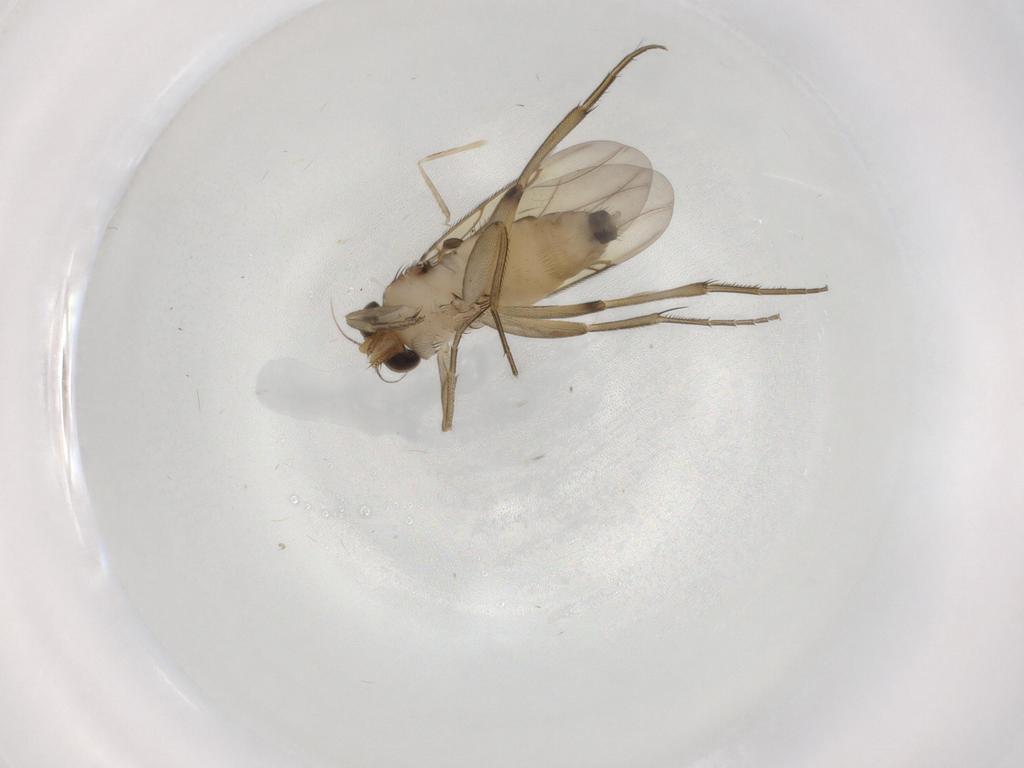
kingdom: Animalia
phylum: Arthropoda
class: Insecta
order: Diptera
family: Phoridae
